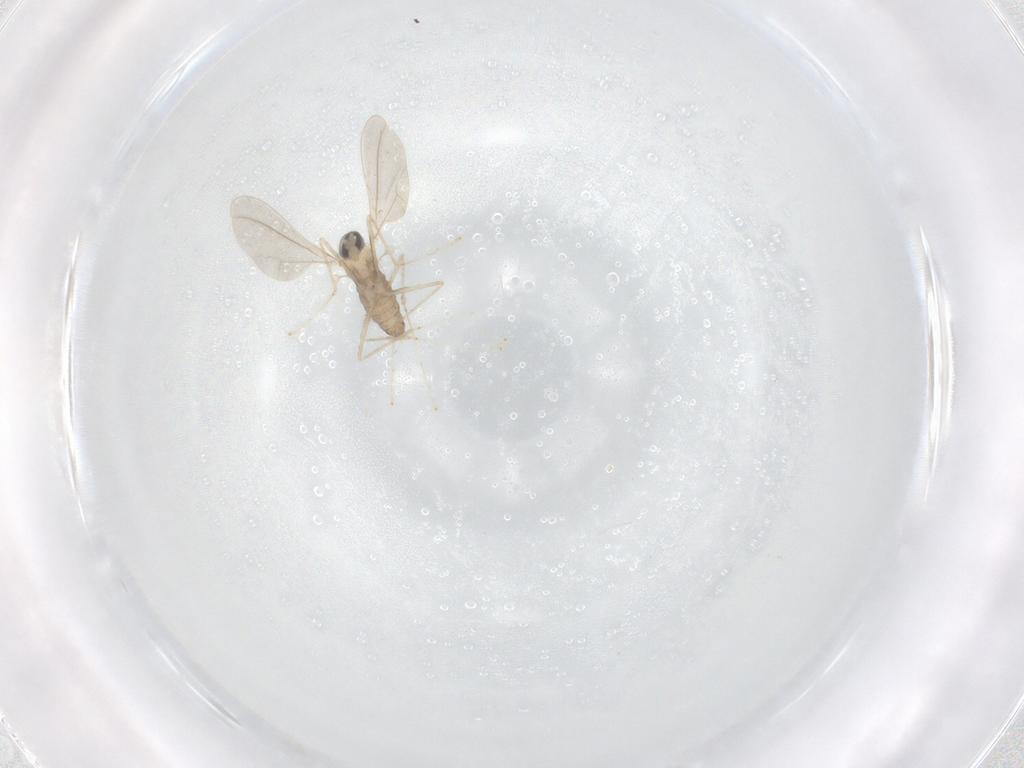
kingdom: Animalia
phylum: Arthropoda
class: Insecta
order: Diptera
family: Cecidomyiidae
